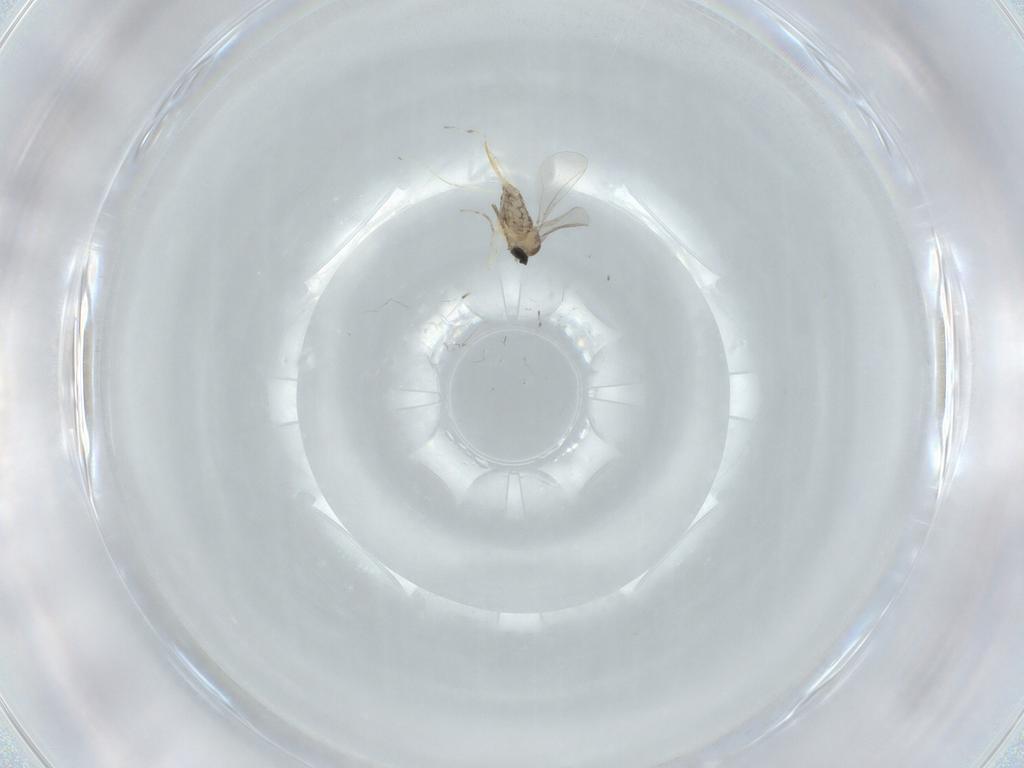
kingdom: Animalia
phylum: Arthropoda
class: Insecta
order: Diptera
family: Cecidomyiidae
